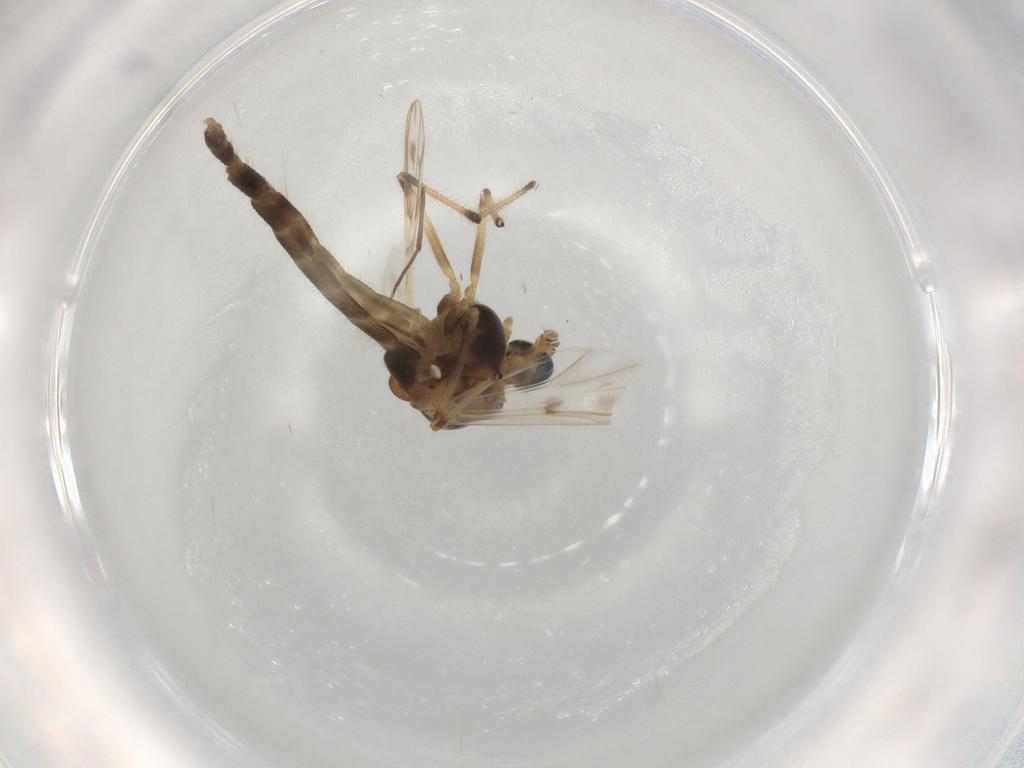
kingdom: Animalia
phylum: Arthropoda
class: Insecta
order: Diptera
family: Chironomidae
